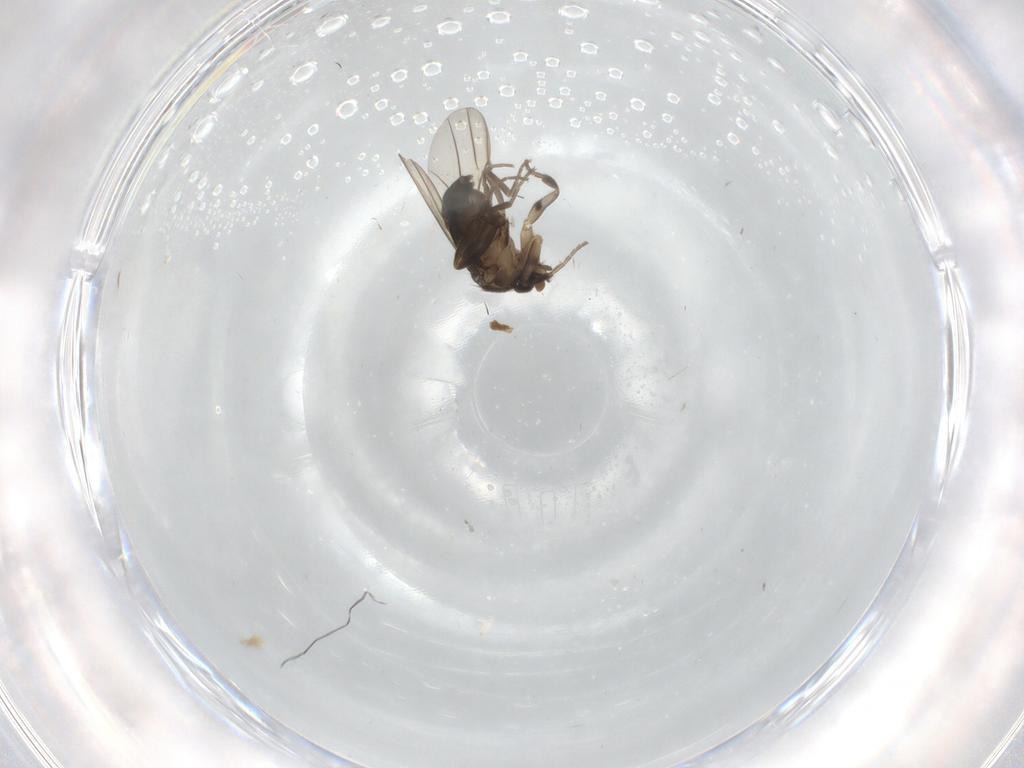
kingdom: Animalia
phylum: Arthropoda
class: Insecta
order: Diptera
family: Phoridae
